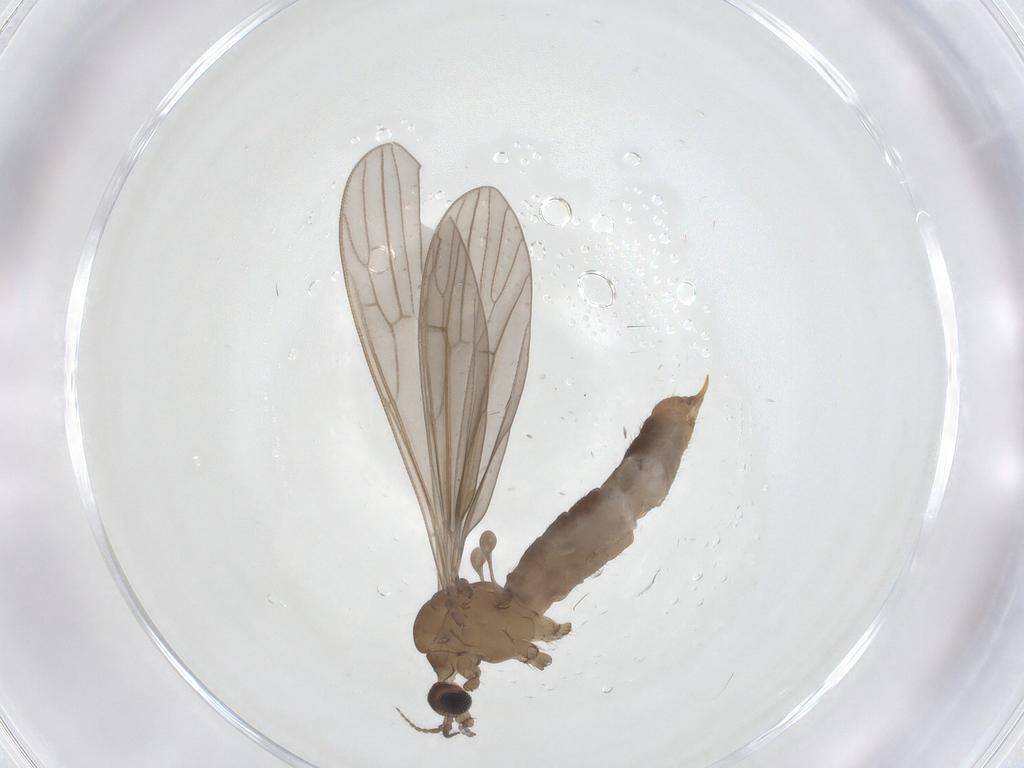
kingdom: Animalia
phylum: Arthropoda
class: Insecta
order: Diptera
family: Limoniidae
